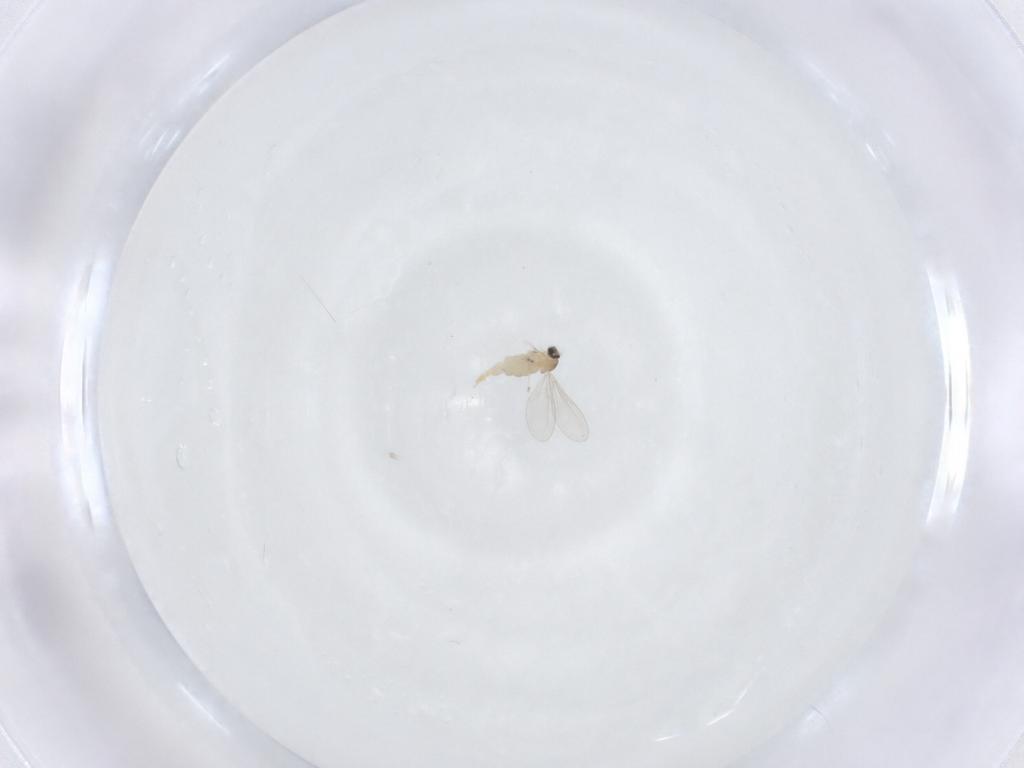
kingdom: Animalia
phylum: Arthropoda
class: Insecta
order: Diptera
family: Cecidomyiidae
